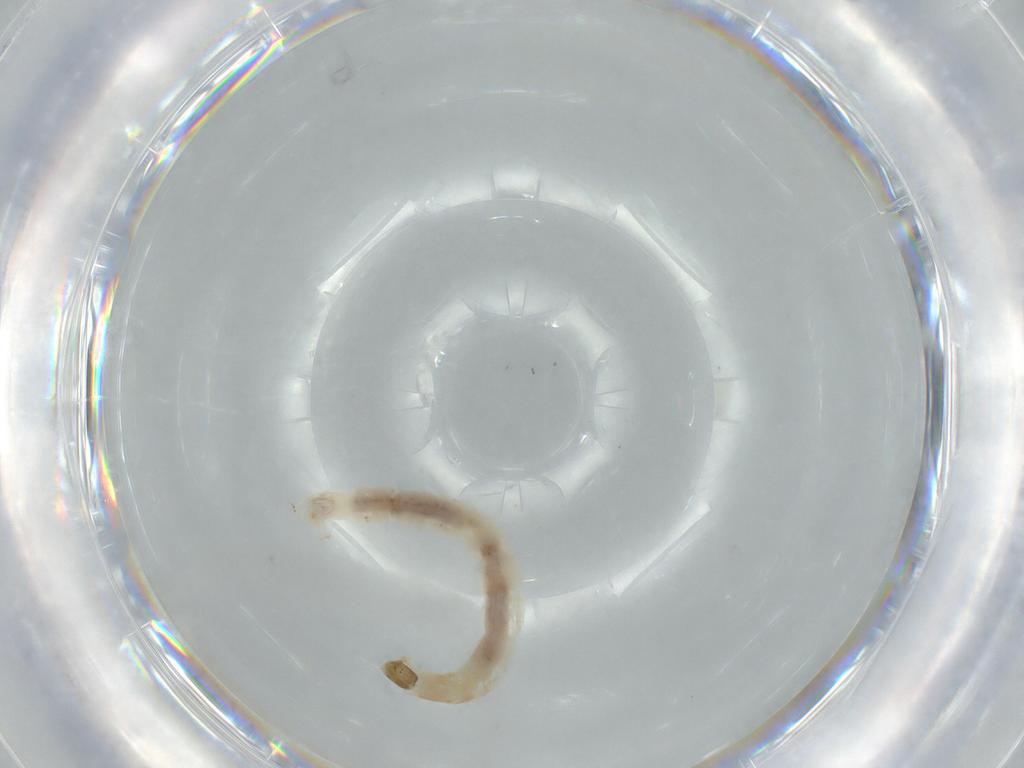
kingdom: Animalia
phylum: Arthropoda
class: Insecta
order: Diptera
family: Chironomidae
